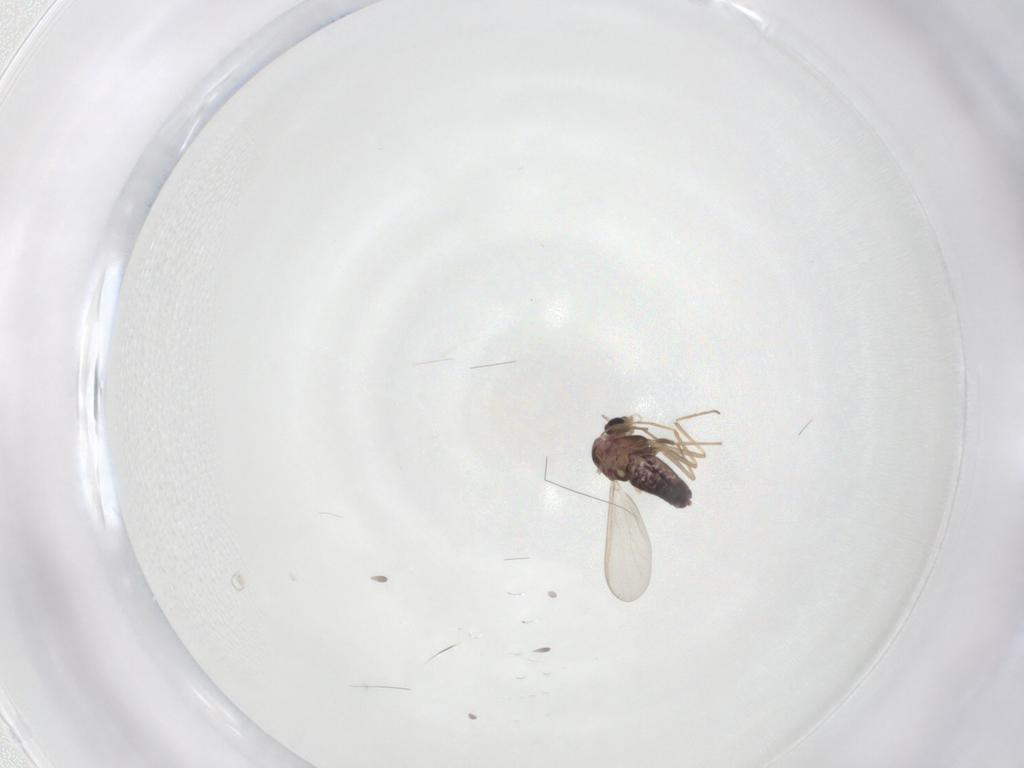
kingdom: Animalia
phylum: Arthropoda
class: Insecta
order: Diptera
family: Chironomidae
